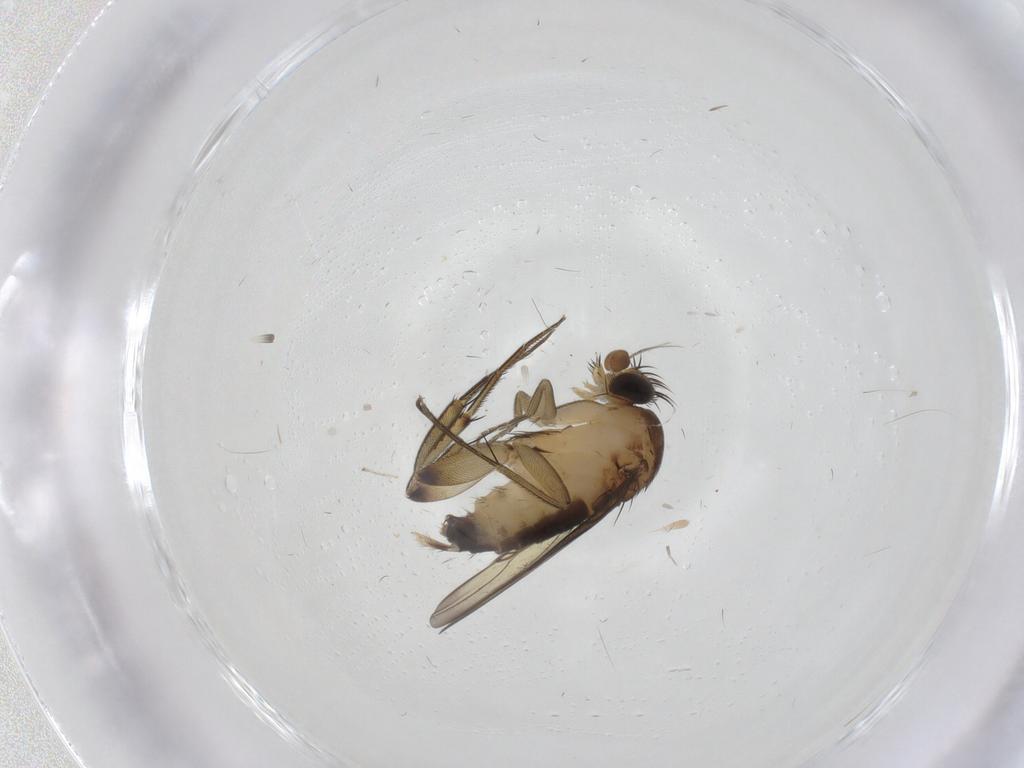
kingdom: Animalia
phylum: Arthropoda
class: Insecta
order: Diptera
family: Phoridae
